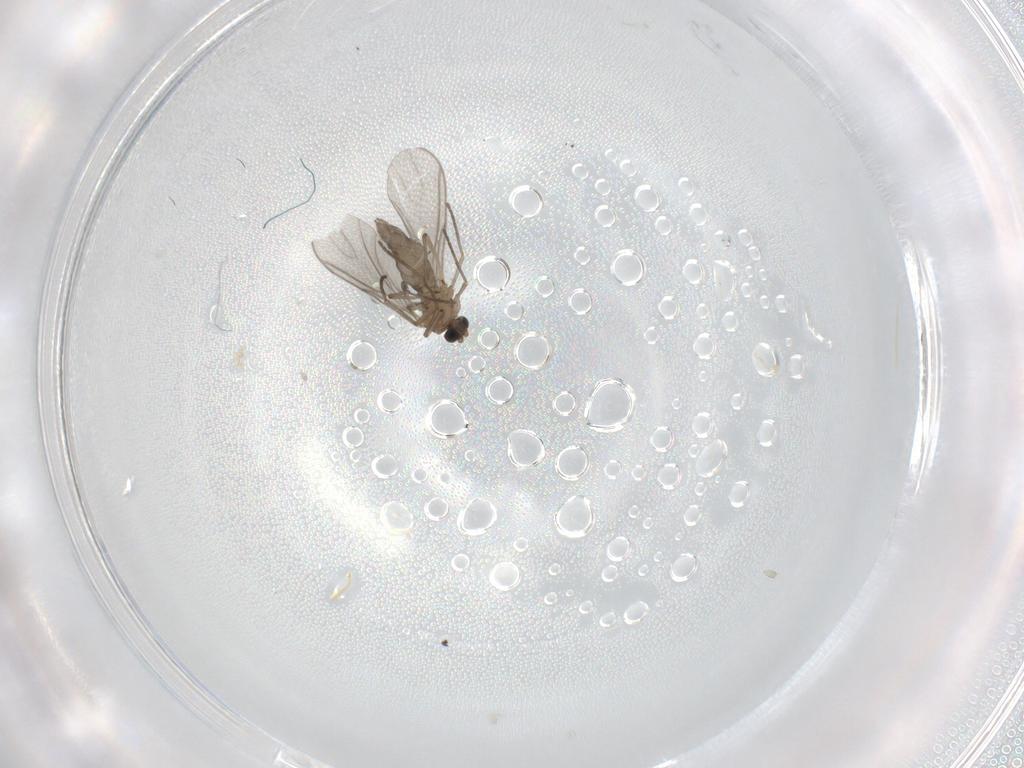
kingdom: Animalia
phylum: Arthropoda
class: Insecta
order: Diptera
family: Sciaridae
